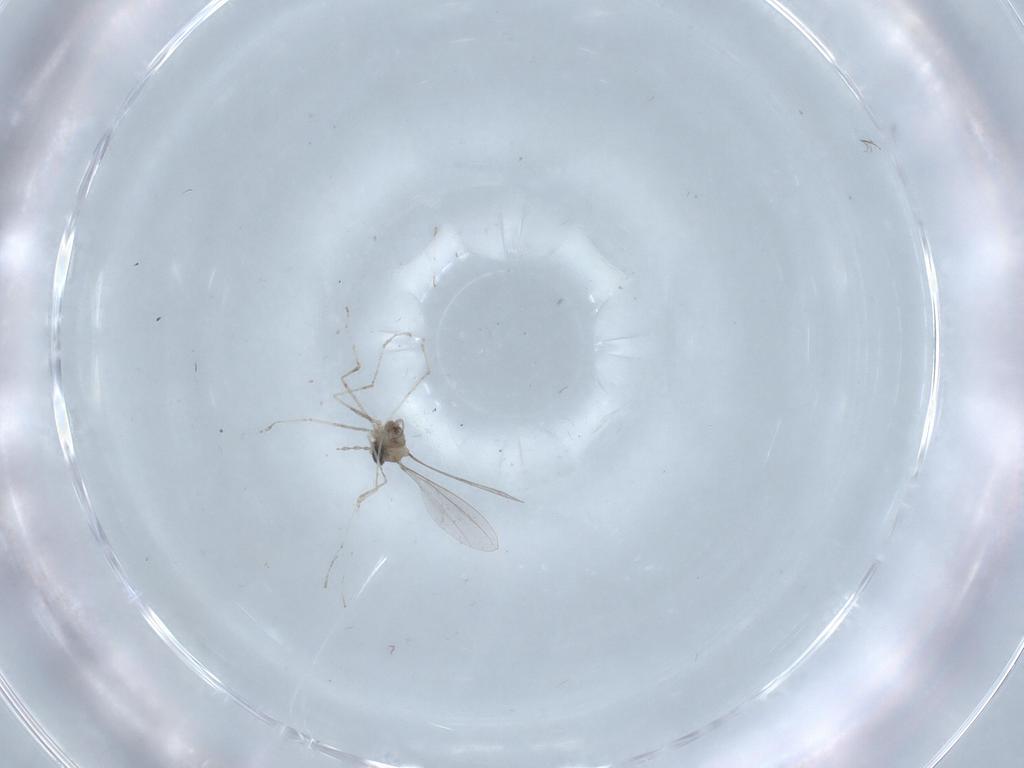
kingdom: Animalia
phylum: Arthropoda
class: Insecta
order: Diptera
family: Cecidomyiidae
